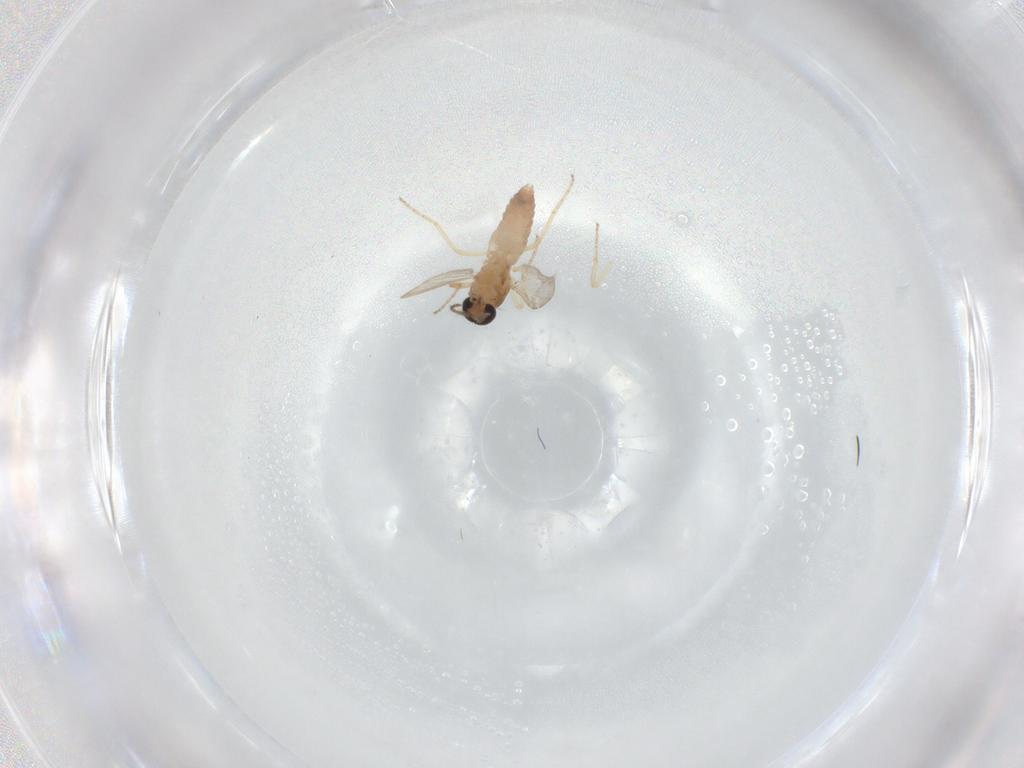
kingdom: Animalia
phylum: Arthropoda
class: Insecta
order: Diptera
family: Ceratopogonidae
